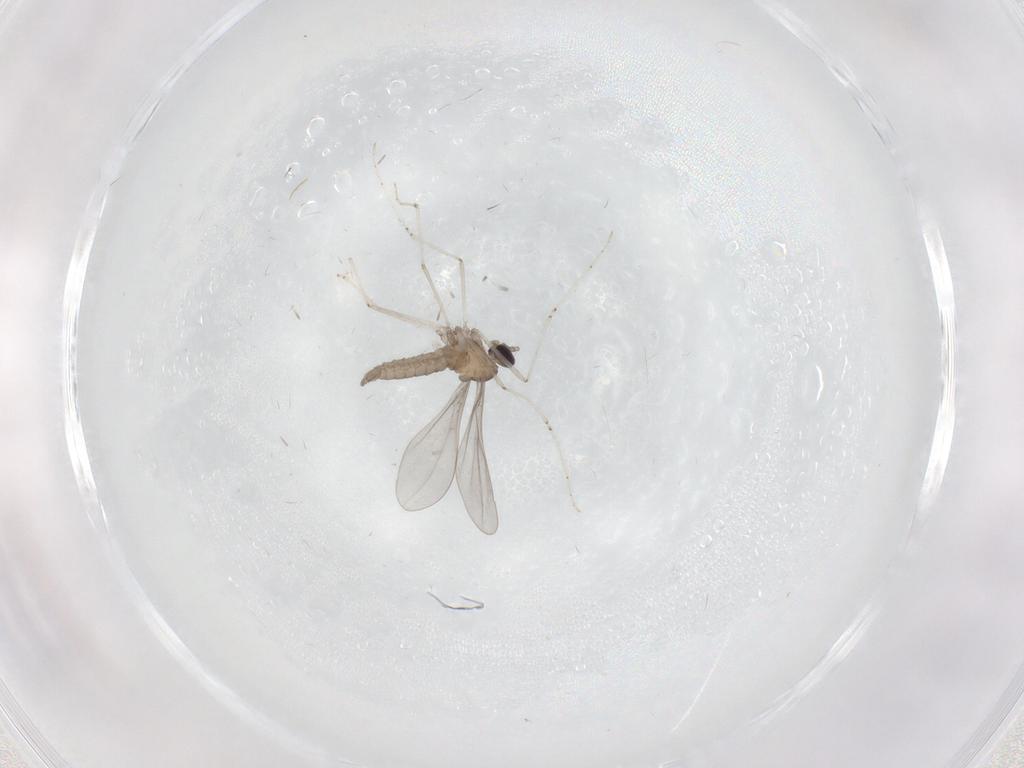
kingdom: Animalia
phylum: Arthropoda
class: Insecta
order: Diptera
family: Chironomidae
